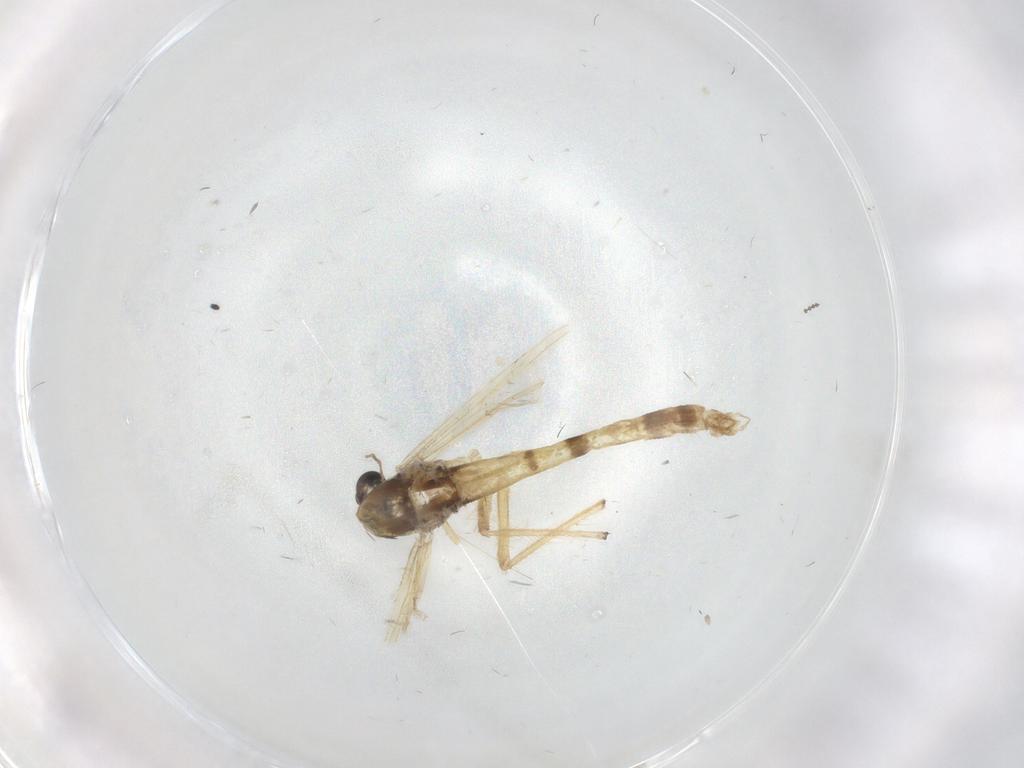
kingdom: Animalia
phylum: Arthropoda
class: Insecta
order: Diptera
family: Chironomidae
